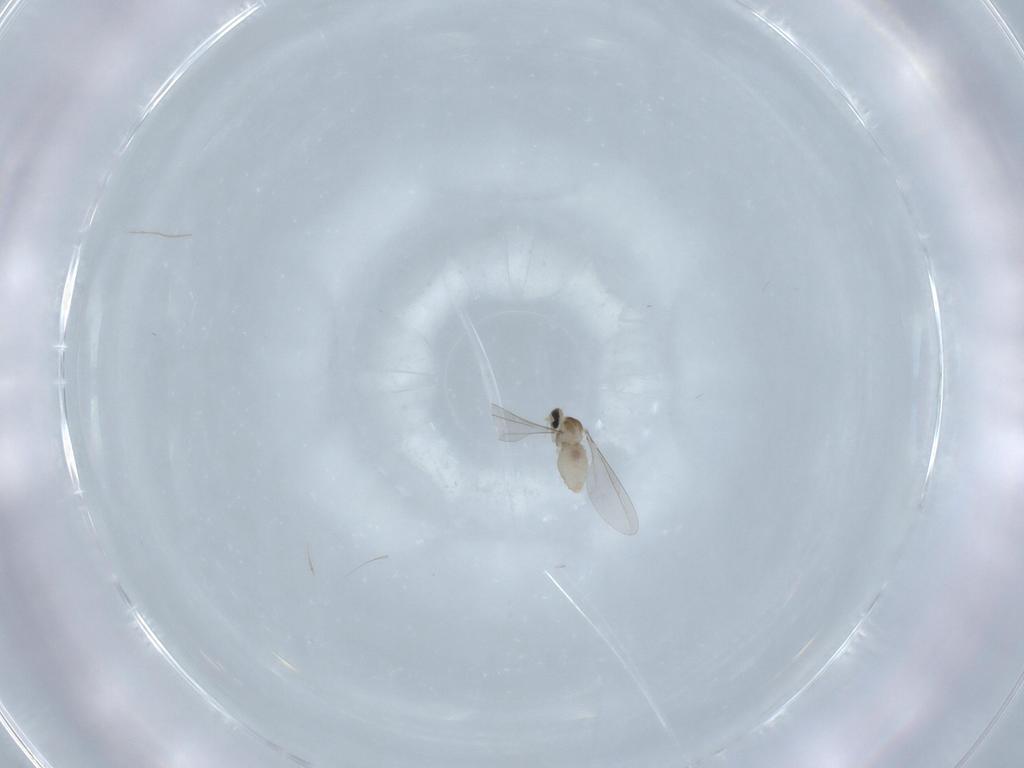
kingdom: Animalia
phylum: Arthropoda
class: Insecta
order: Diptera
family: Cecidomyiidae
